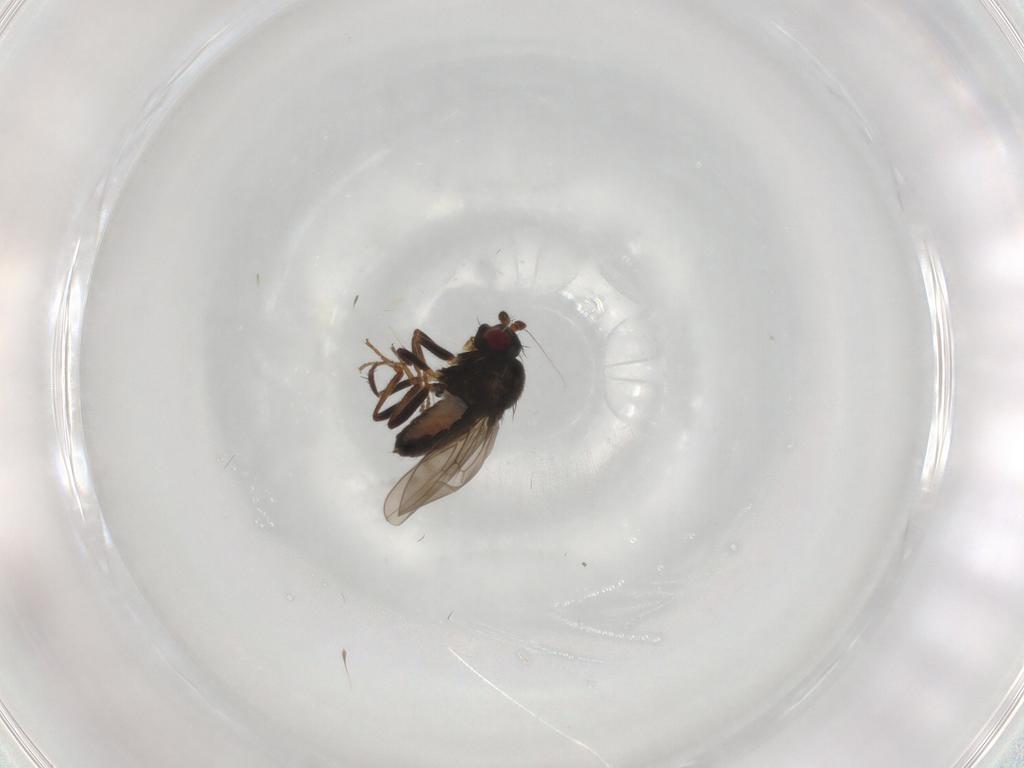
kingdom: Animalia
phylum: Arthropoda
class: Insecta
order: Diptera
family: Sphaeroceridae
